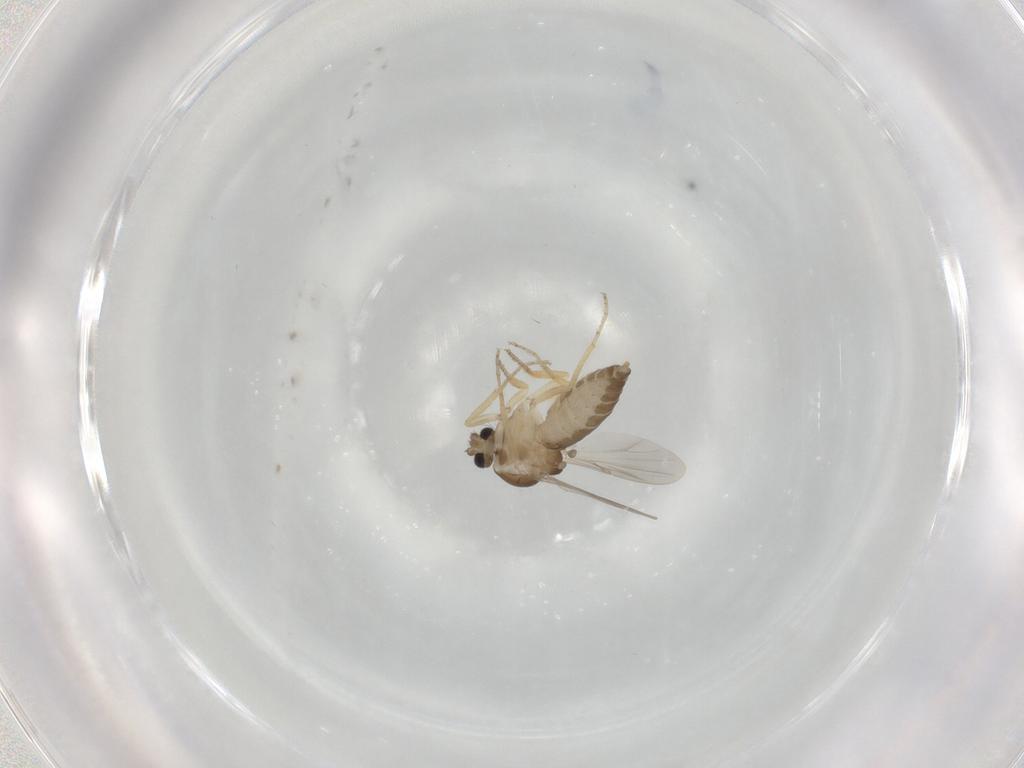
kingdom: Animalia
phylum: Arthropoda
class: Insecta
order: Diptera
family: Ceratopogonidae
